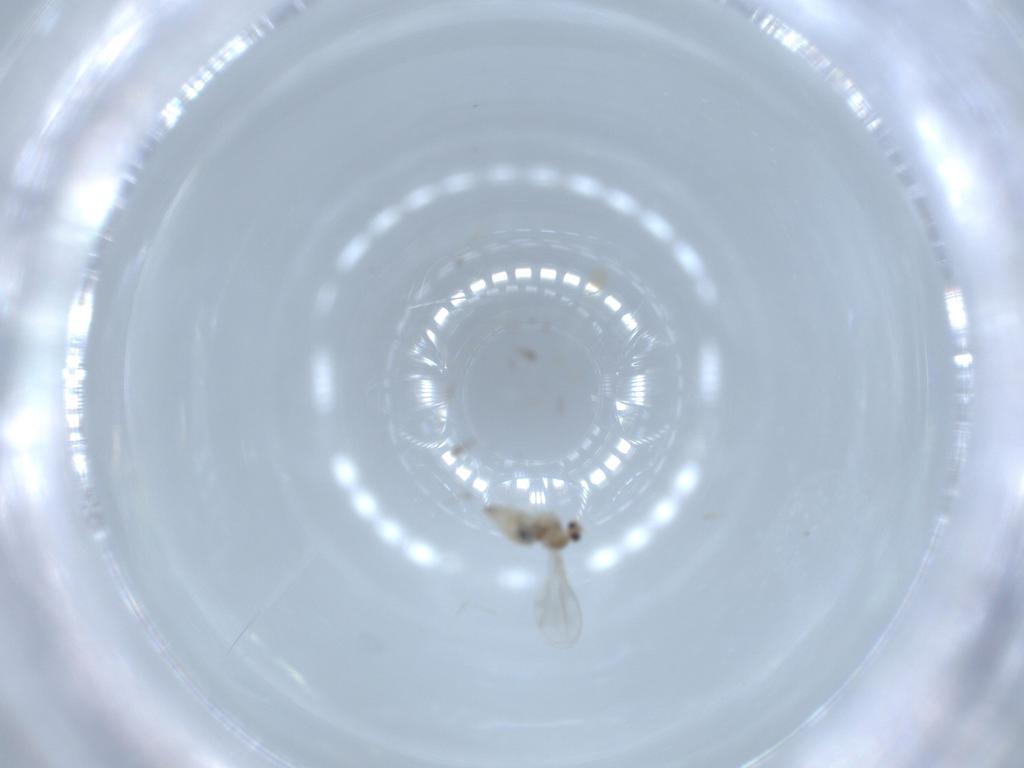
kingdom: Animalia
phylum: Arthropoda
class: Insecta
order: Diptera
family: Cecidomyiidae
